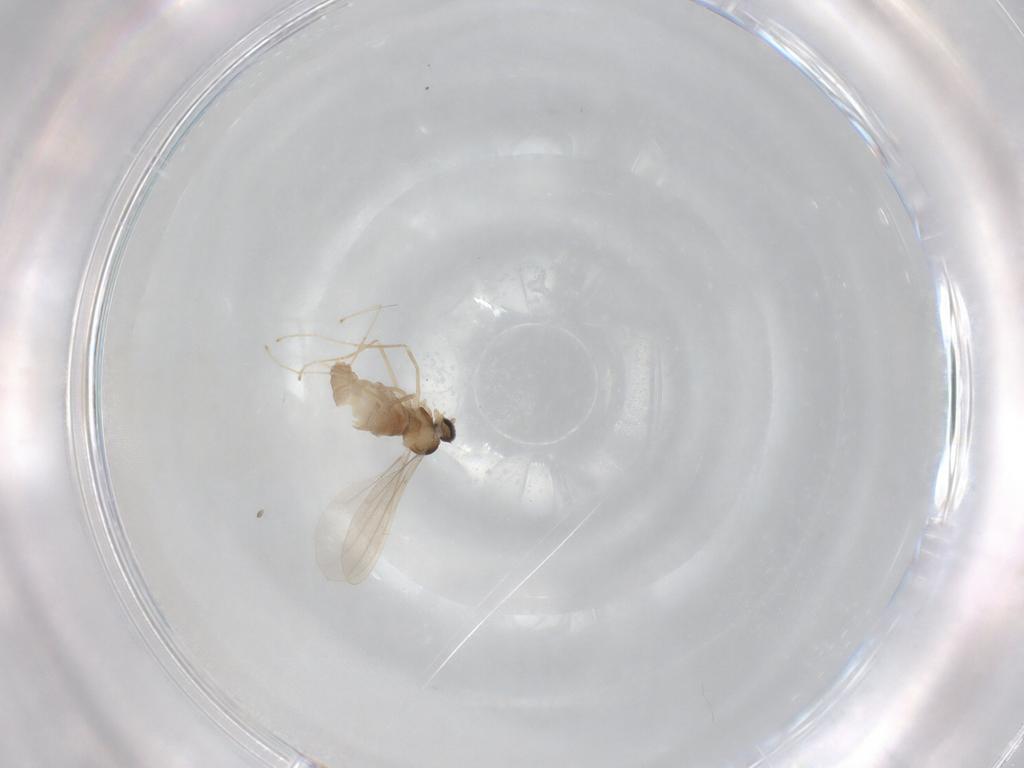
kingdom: Animalia
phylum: Arthropoda
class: Insecta
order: Diptera
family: Cecidomyiidae
